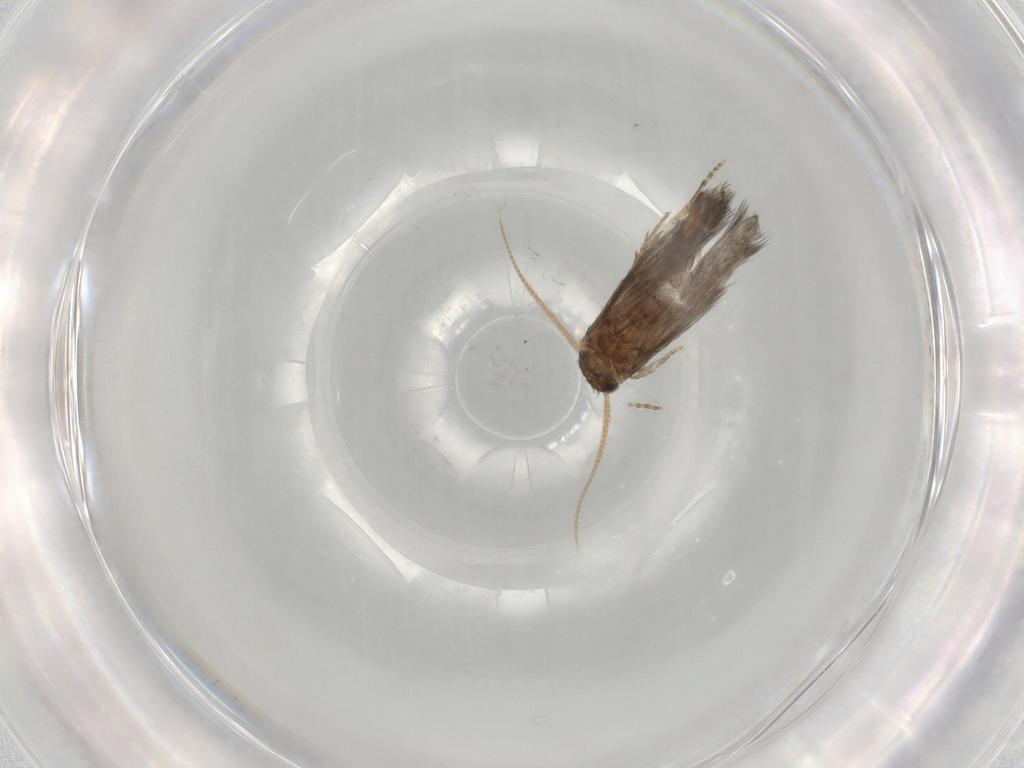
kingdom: Animalia
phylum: Arthropoda
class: Insecta
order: Trichoptera
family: Hydroptilidae
